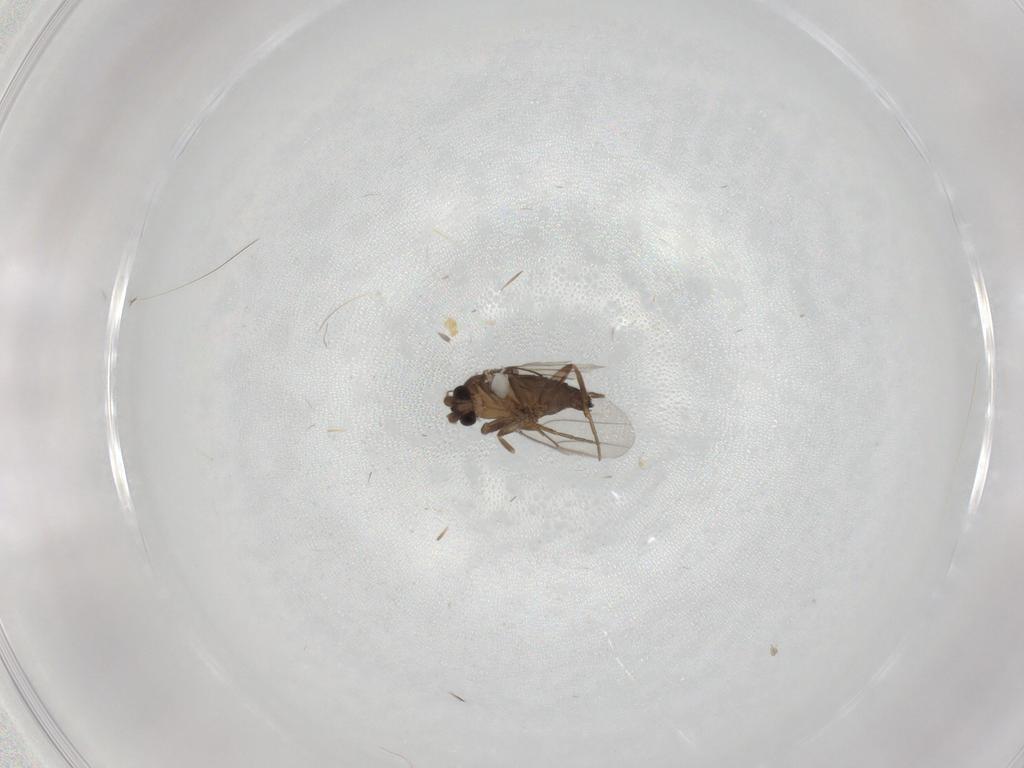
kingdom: Animalia
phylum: Arthropoda
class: Insecta
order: Diptera
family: Phoridae
